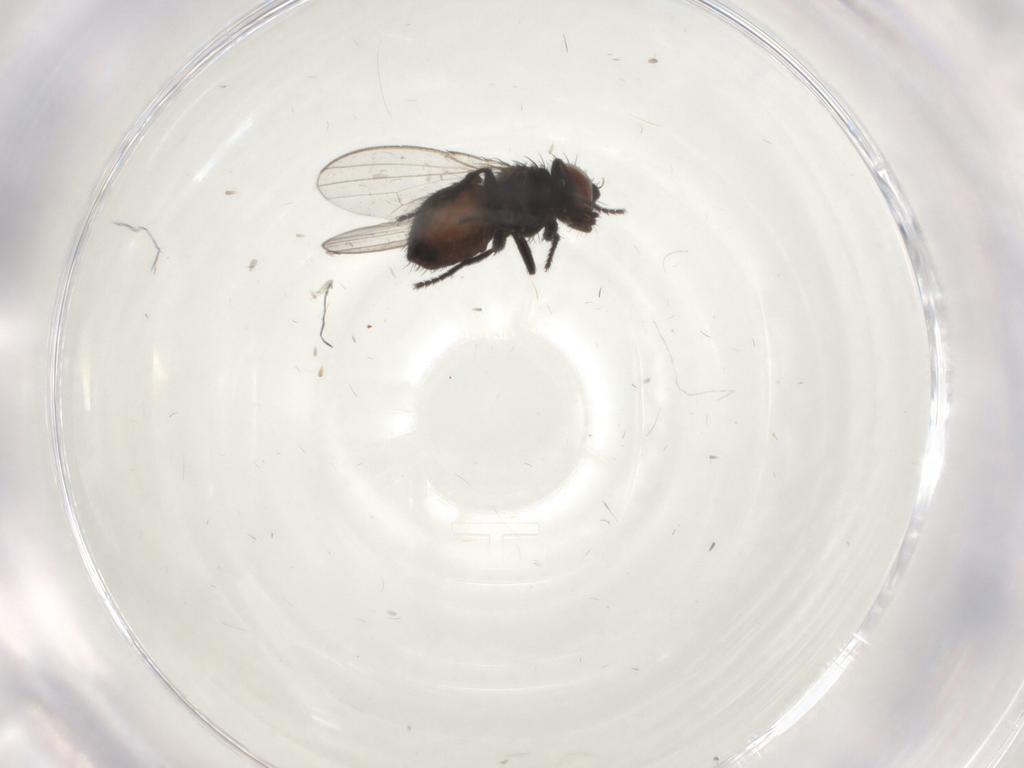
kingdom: Animalia
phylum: Arthropoda
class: Insecta
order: Diptera
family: Milichiidae
